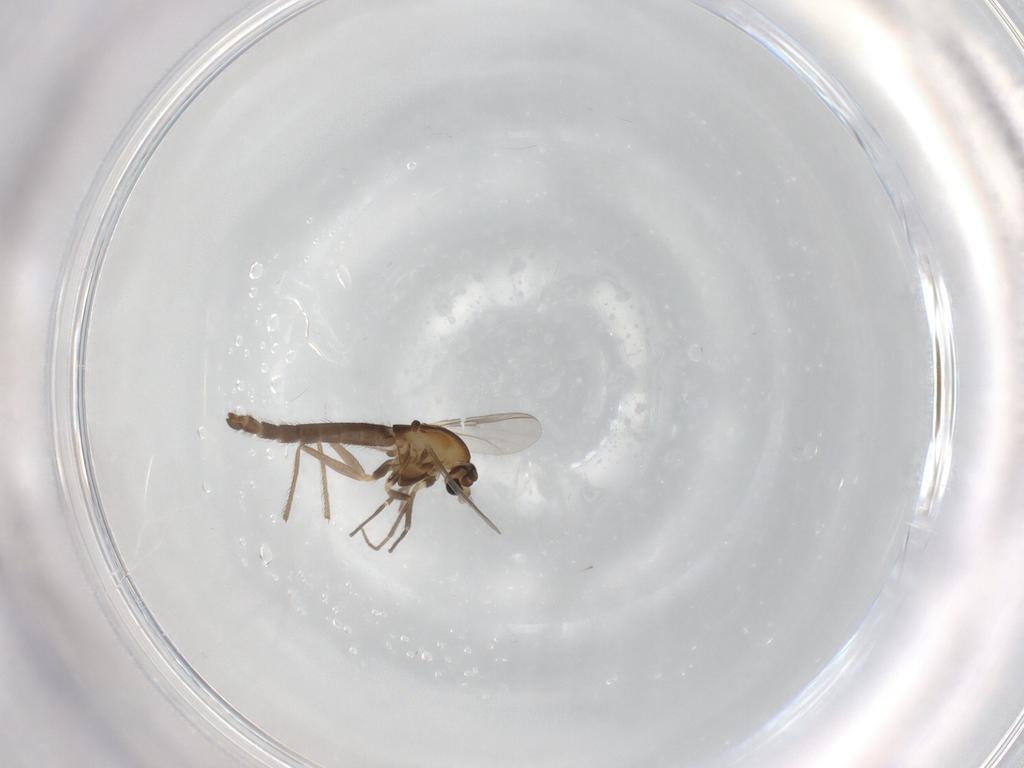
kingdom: Animalia
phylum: Arthropoda
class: Insecta
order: Diptera
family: Chironomidae
